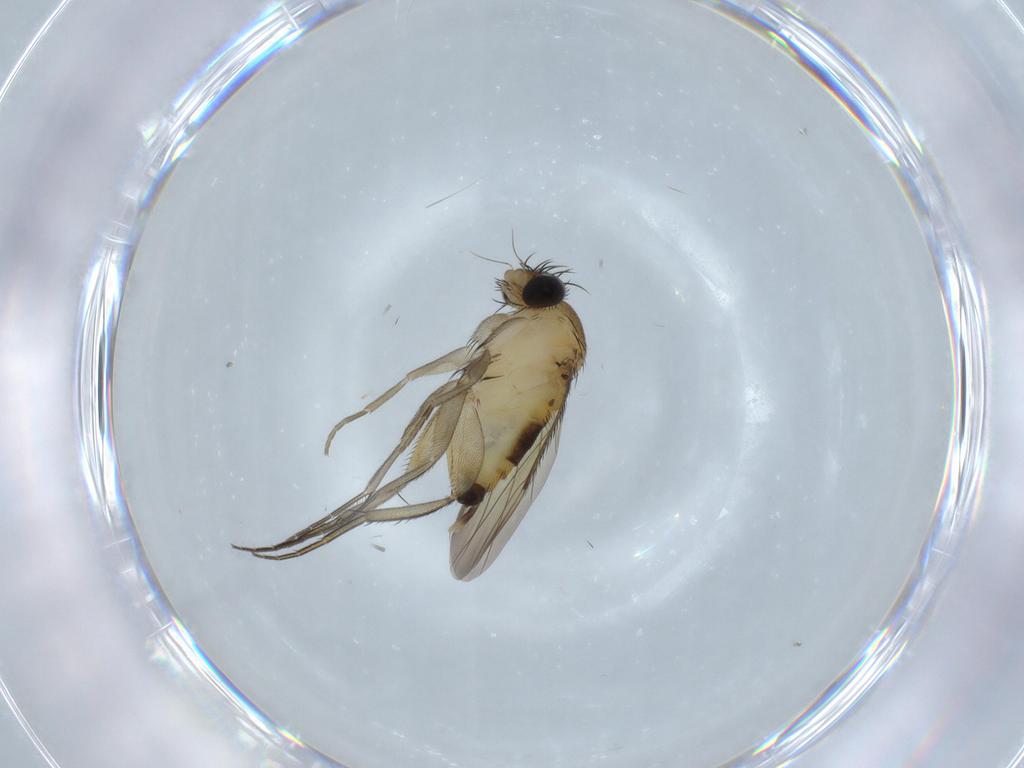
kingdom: Animalia
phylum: Arthropoda
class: Insecta
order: Diptera
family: Phoridae
